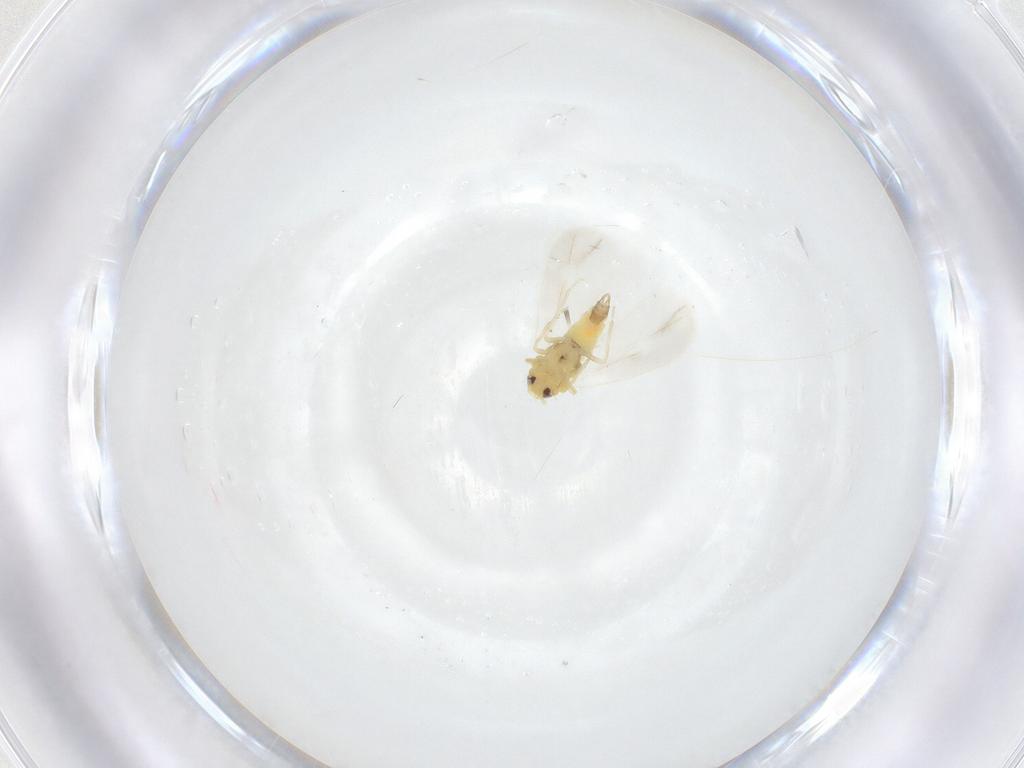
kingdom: Animalia
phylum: Arthropoda
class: Insecta
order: Hemiptera
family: Aleyrodidae
